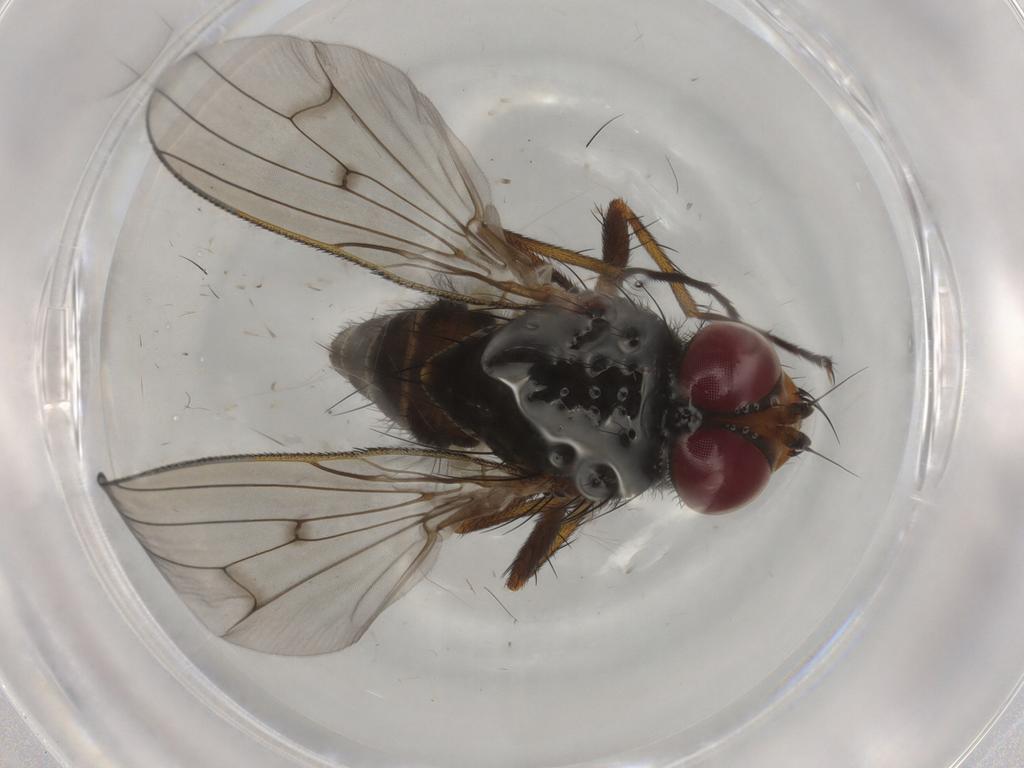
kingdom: Animalia
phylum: Arthropoda
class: Insecta
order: Diptera
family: Anthomyiidae
